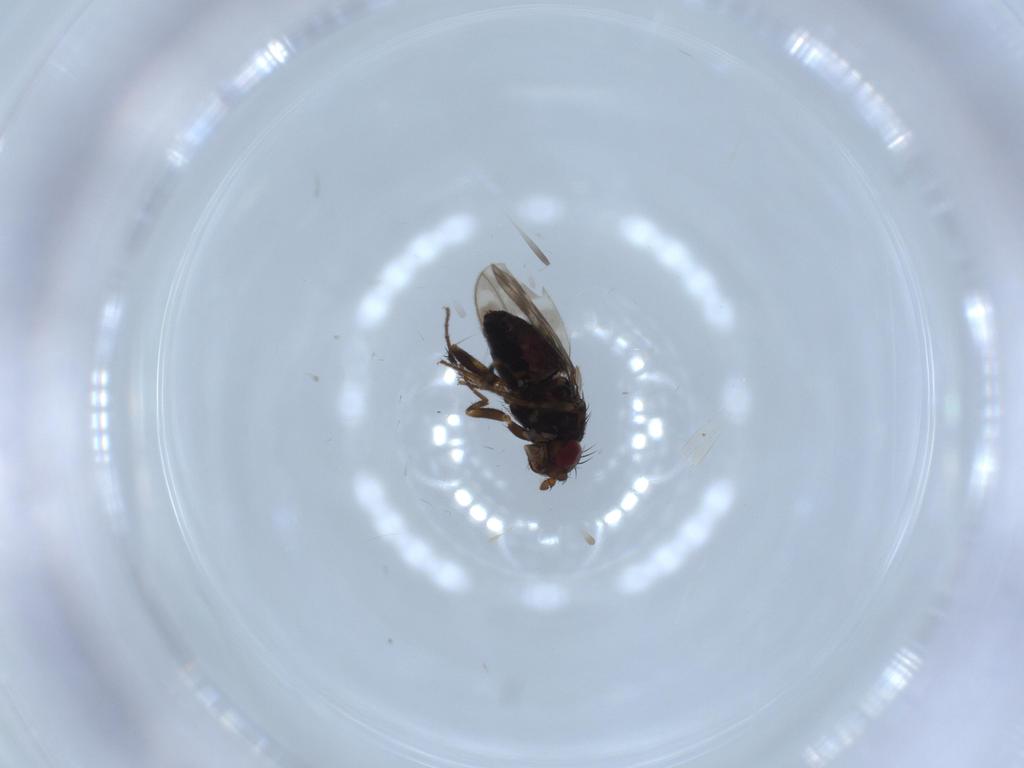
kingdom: Animalia
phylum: Arthropoda
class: Insecta
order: Diptera
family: Sphaeroceridae
